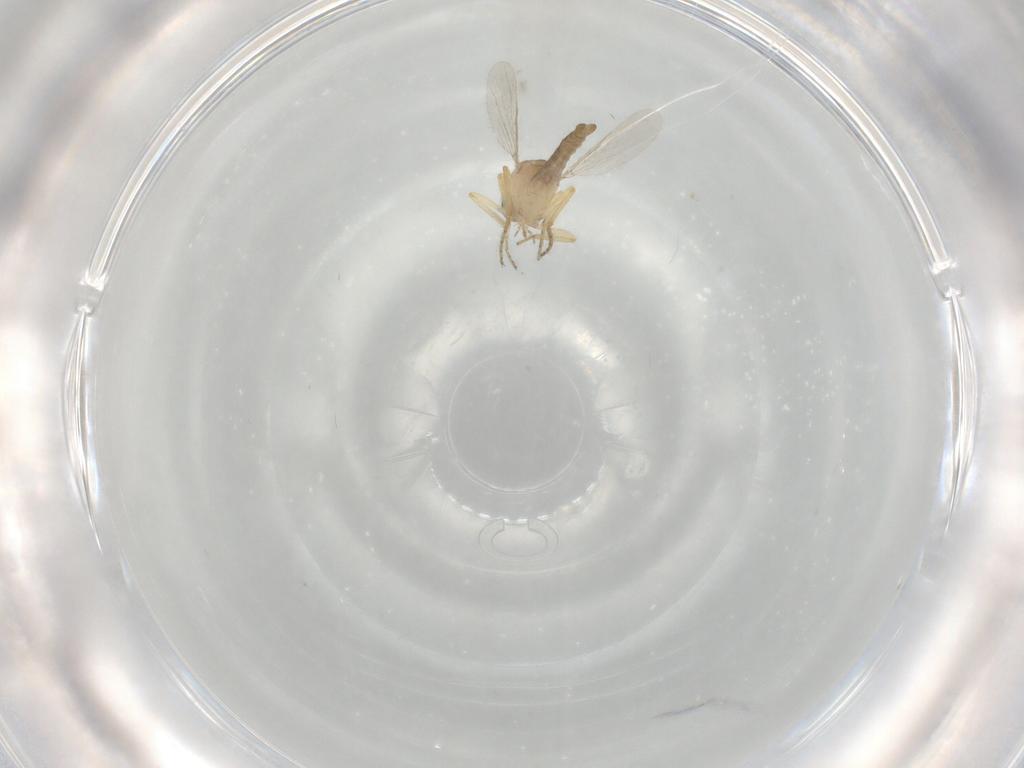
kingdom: Animalia
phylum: Arthropoda
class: Insecta
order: Diptera
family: Ceratopogonidae
